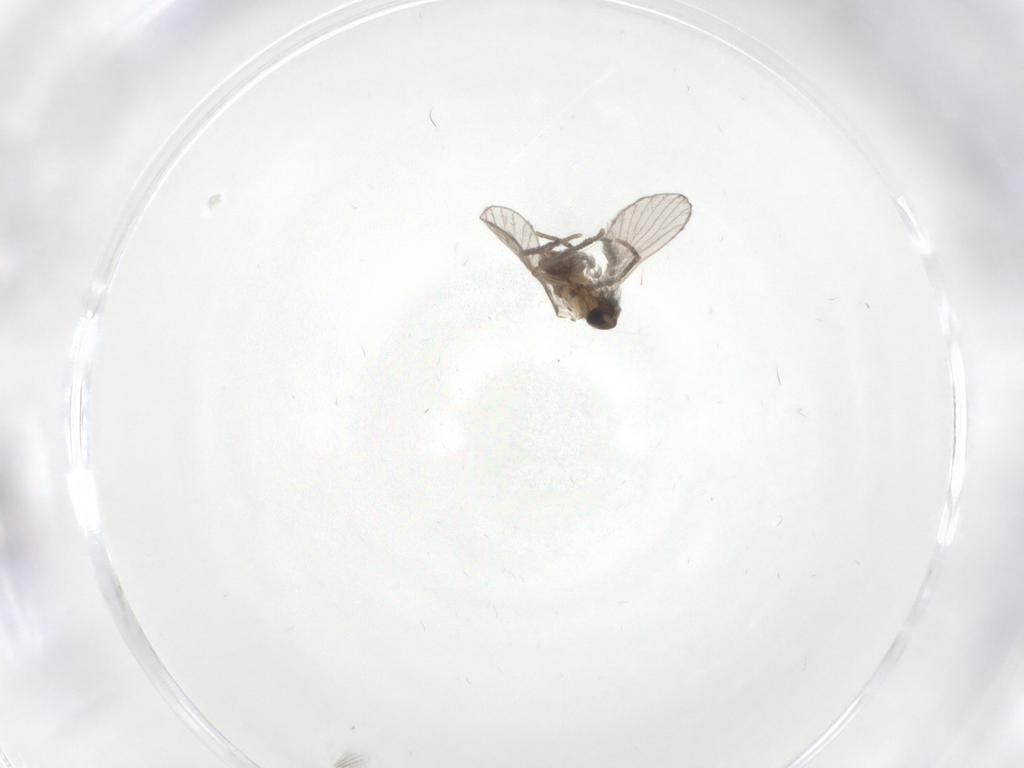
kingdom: Animalia
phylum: Arthropoda
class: Insecta
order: Diptera
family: Psychodidae
